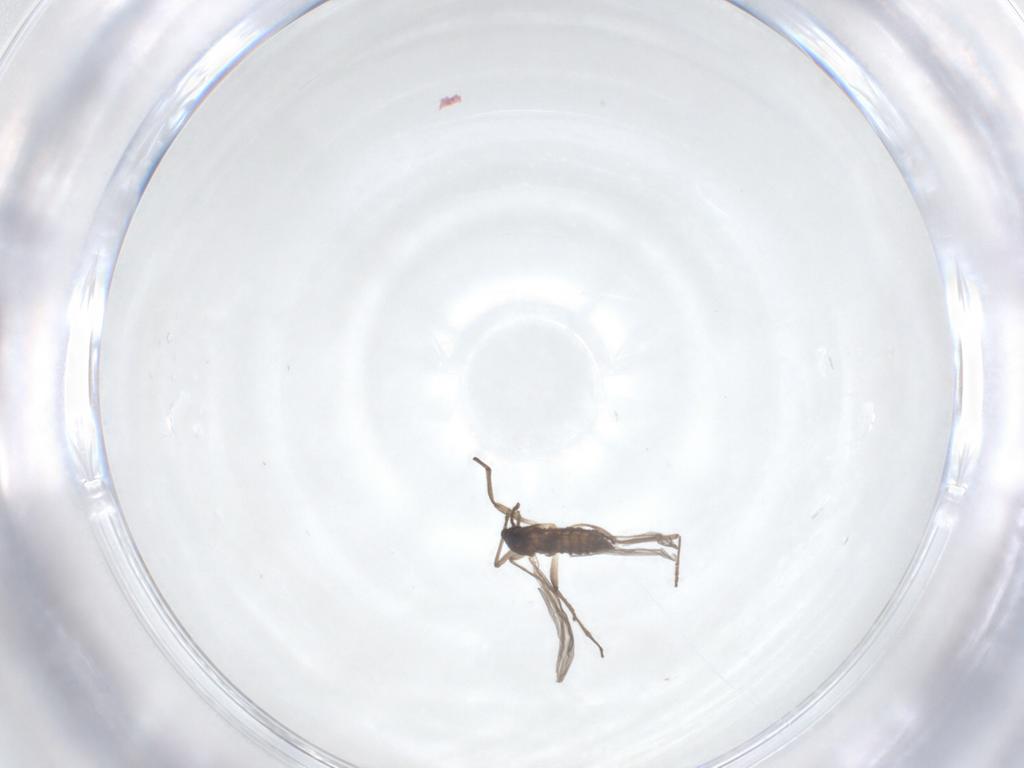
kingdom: Animalia
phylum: Arthropoda
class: Insecta
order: Diptera
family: Cecidomyiidae
